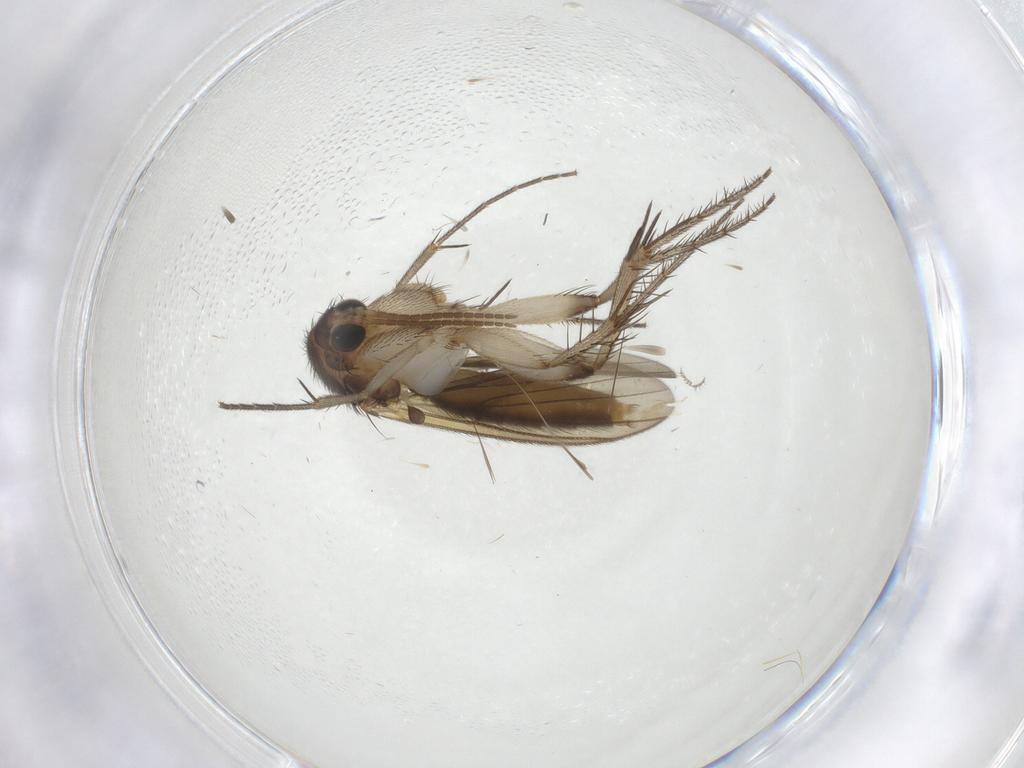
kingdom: Animalia
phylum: Arthropoda
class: Insecta
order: Diptera
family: Mycetophilidae
